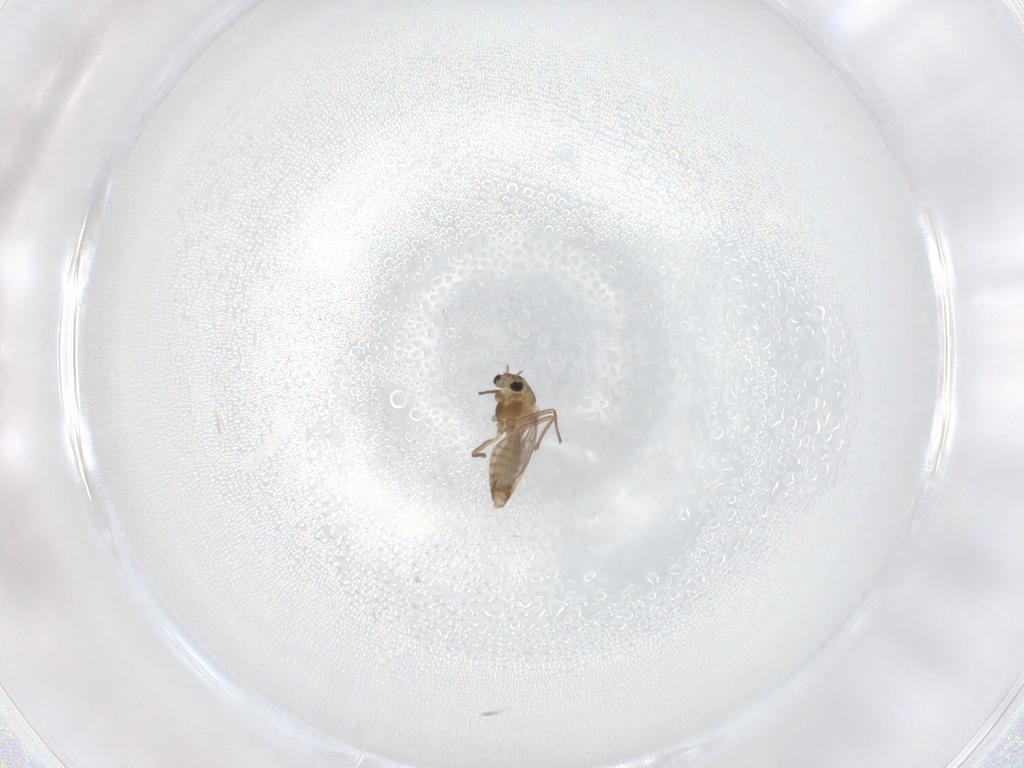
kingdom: Animalia
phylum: Arthropoda
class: Insecta
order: Diptera
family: Chironomidae
